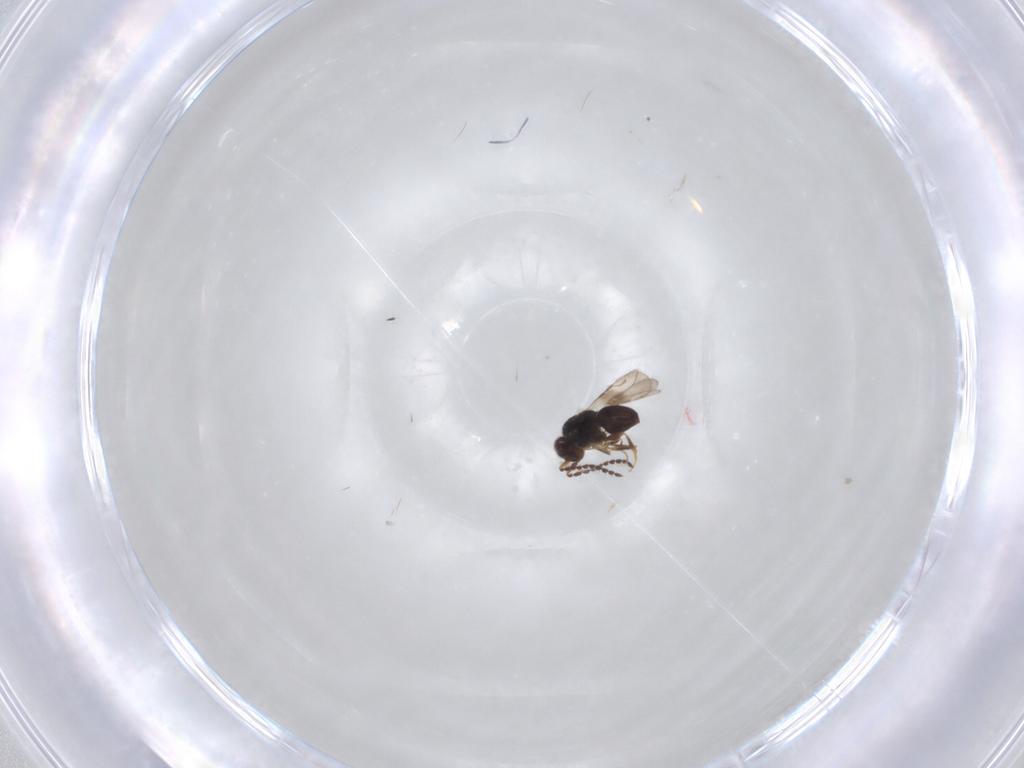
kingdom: Animalia
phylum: Arthropoda
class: Insecta
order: Hymenoptera
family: Ceraphronidae
